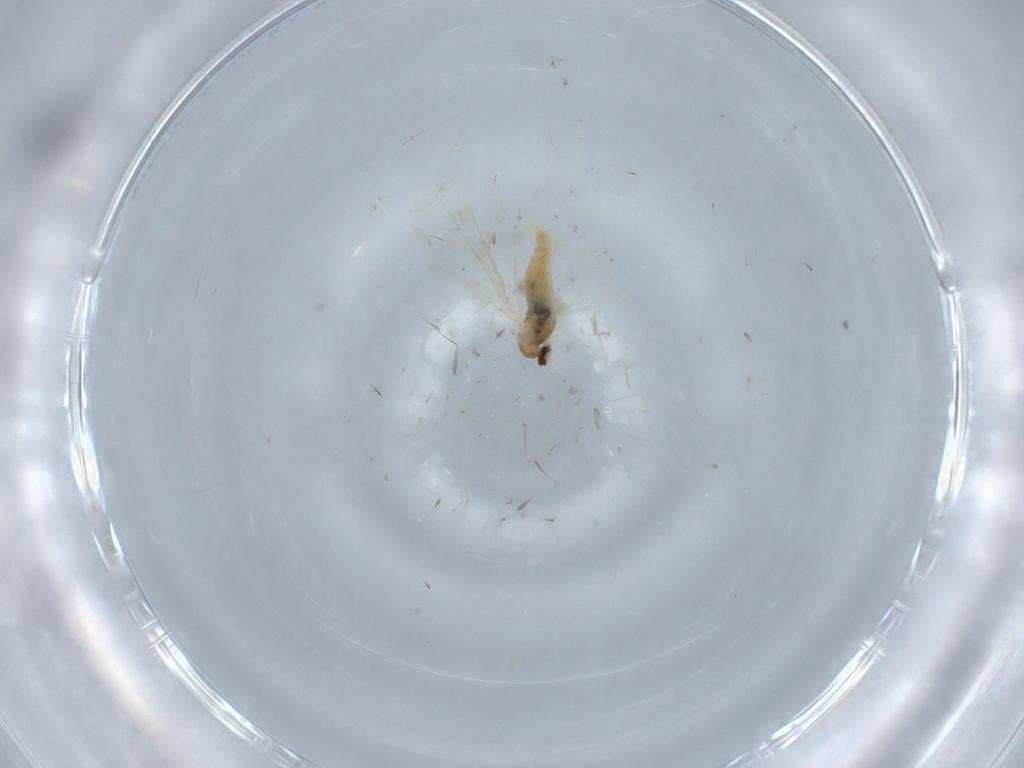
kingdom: Animalia
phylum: Arthropoda
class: Insecta
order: Diptera
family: Cecidomyiidae
